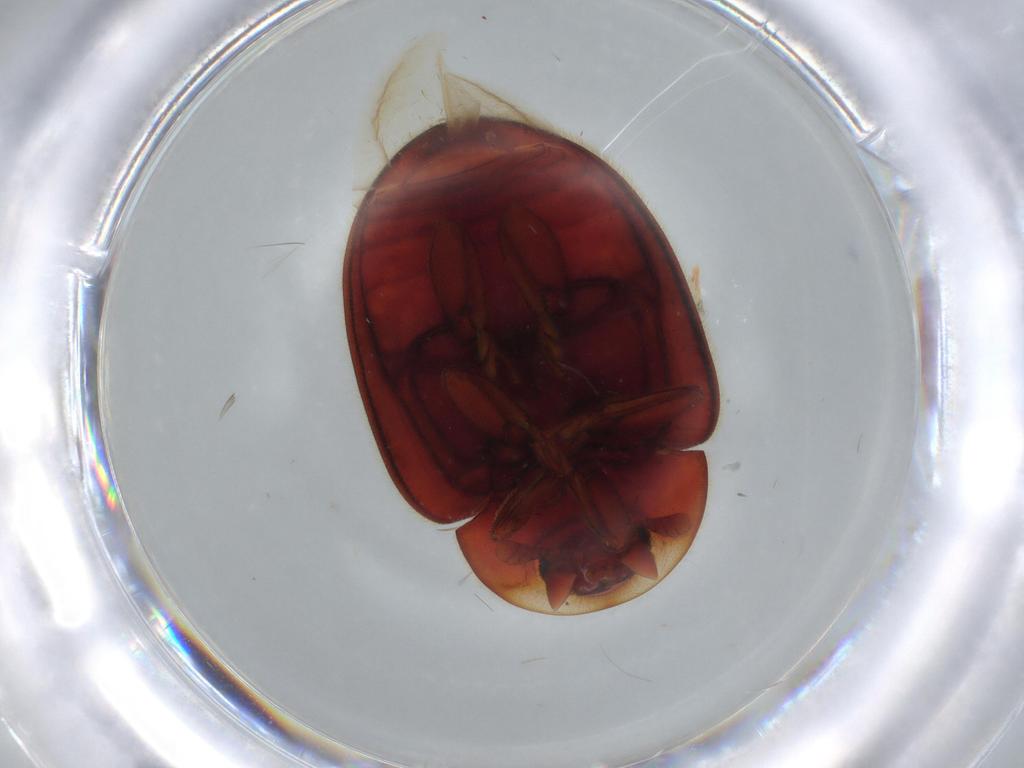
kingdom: Animalia
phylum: Arthropoda
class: Insecta
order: Coleoptera
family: Coccinellidae
